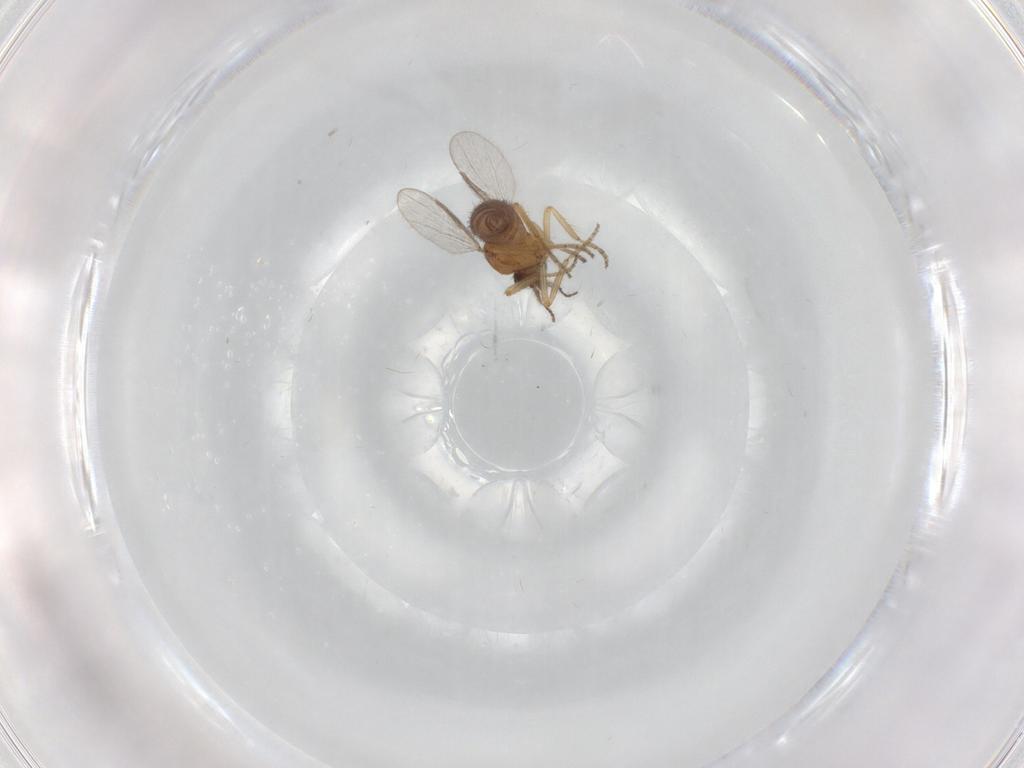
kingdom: Animalia
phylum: Arthropoda
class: Insecta
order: Diptera
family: Ceratopogonidae
